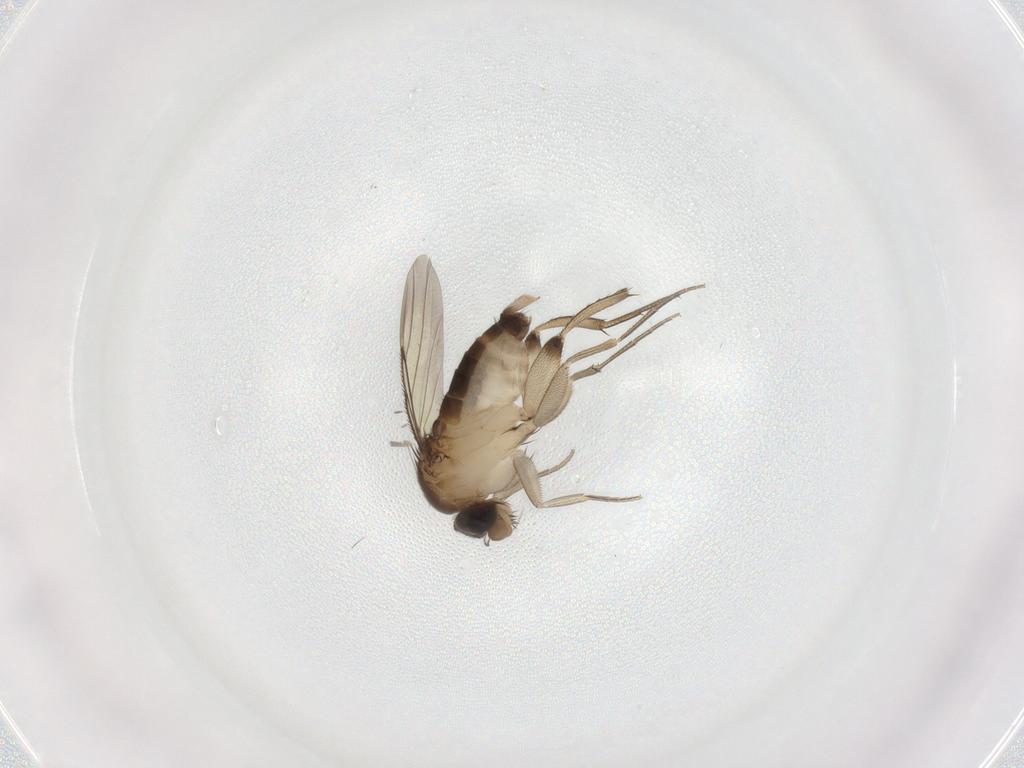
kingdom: Animalia
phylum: Arthropoda
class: Insecta
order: Diptera
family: Phoridae
